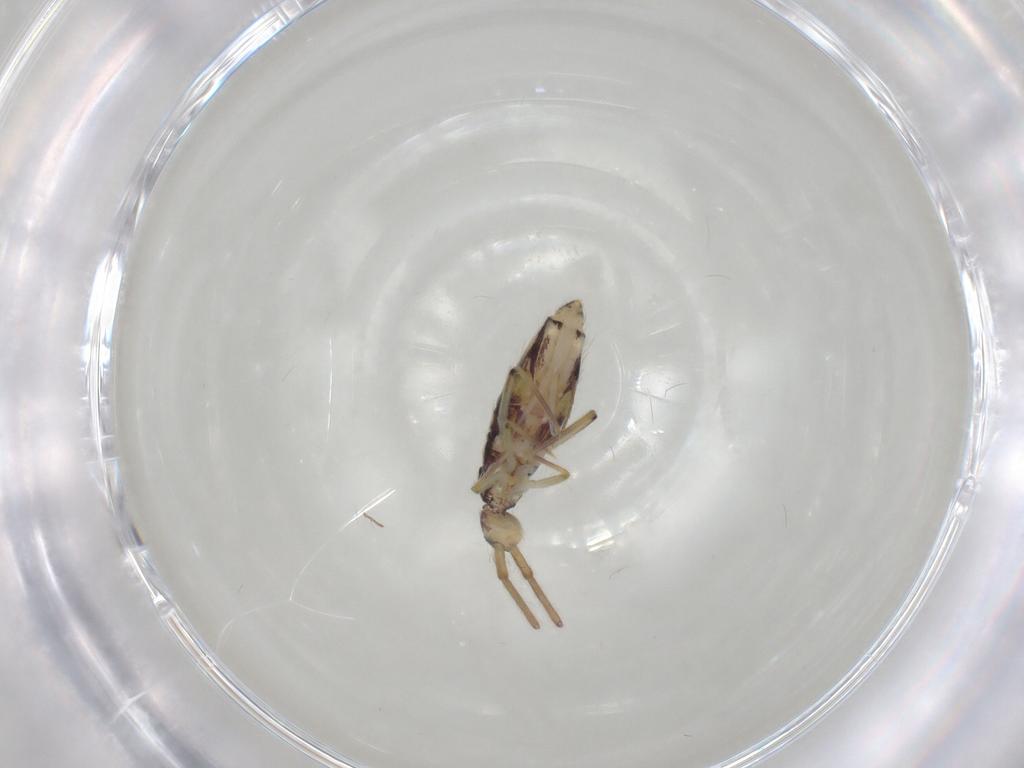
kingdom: Animalia
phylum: Arthropoda
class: Collembola
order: Entomobryomorpha
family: Entomobryidae
